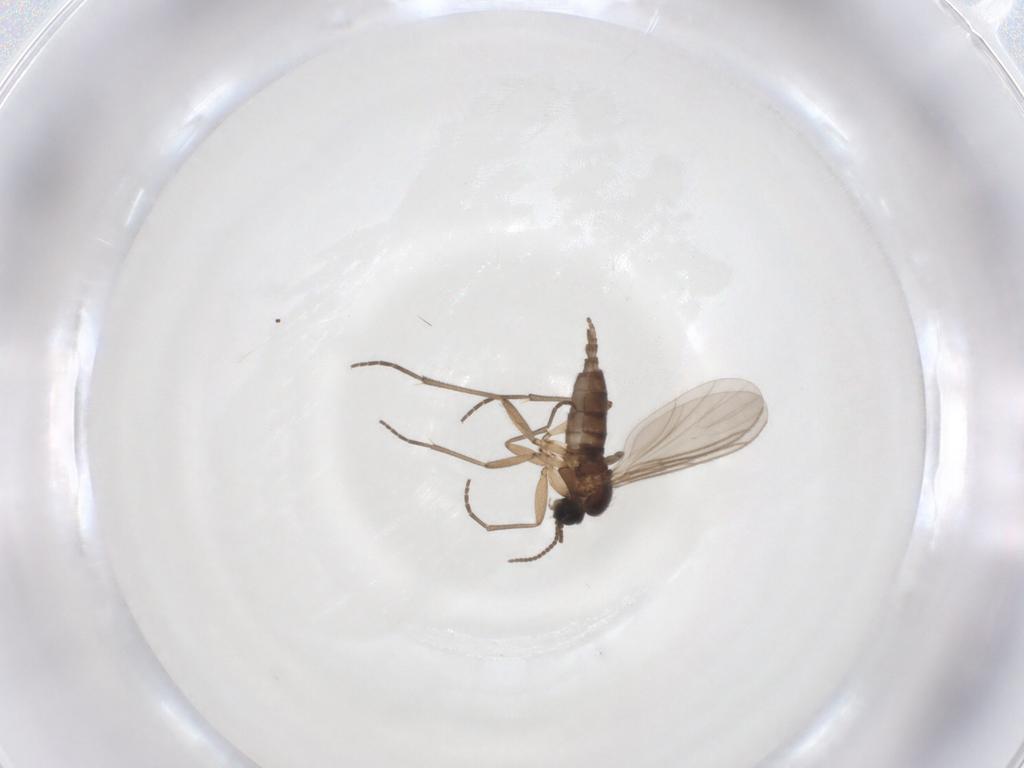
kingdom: Animalia
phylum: Arthropoda
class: Insecta
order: Diptera
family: Sciaridae
